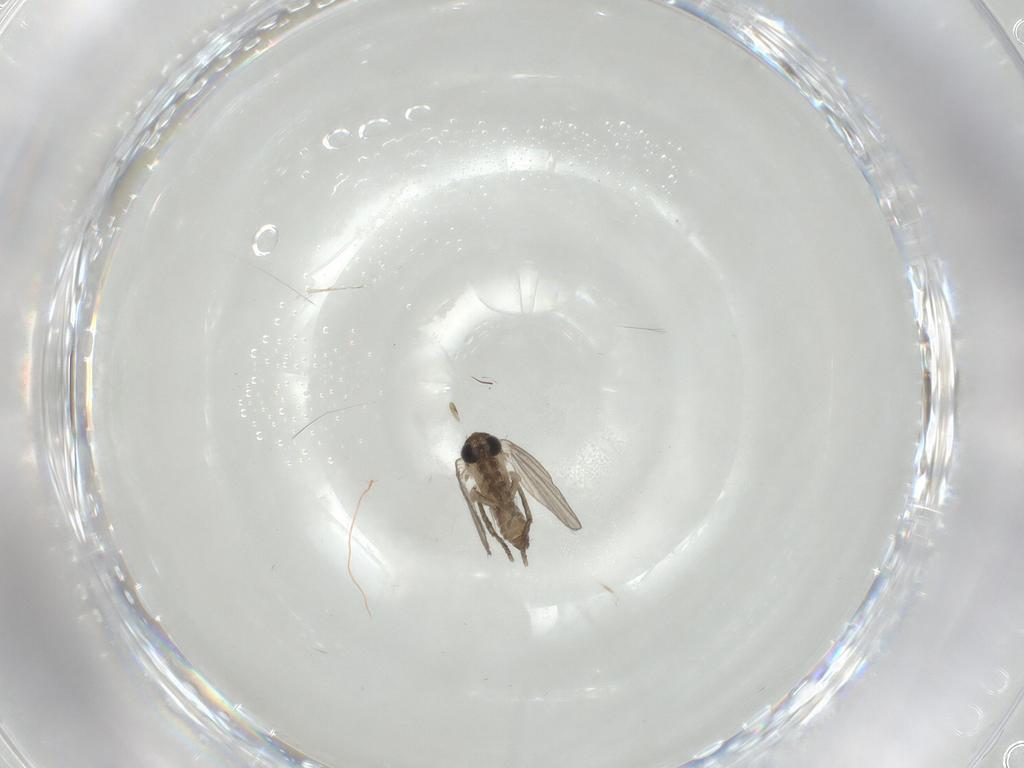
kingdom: Animalia
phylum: Arthropoda
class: Insecta
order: Diptera
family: Psychodidae
